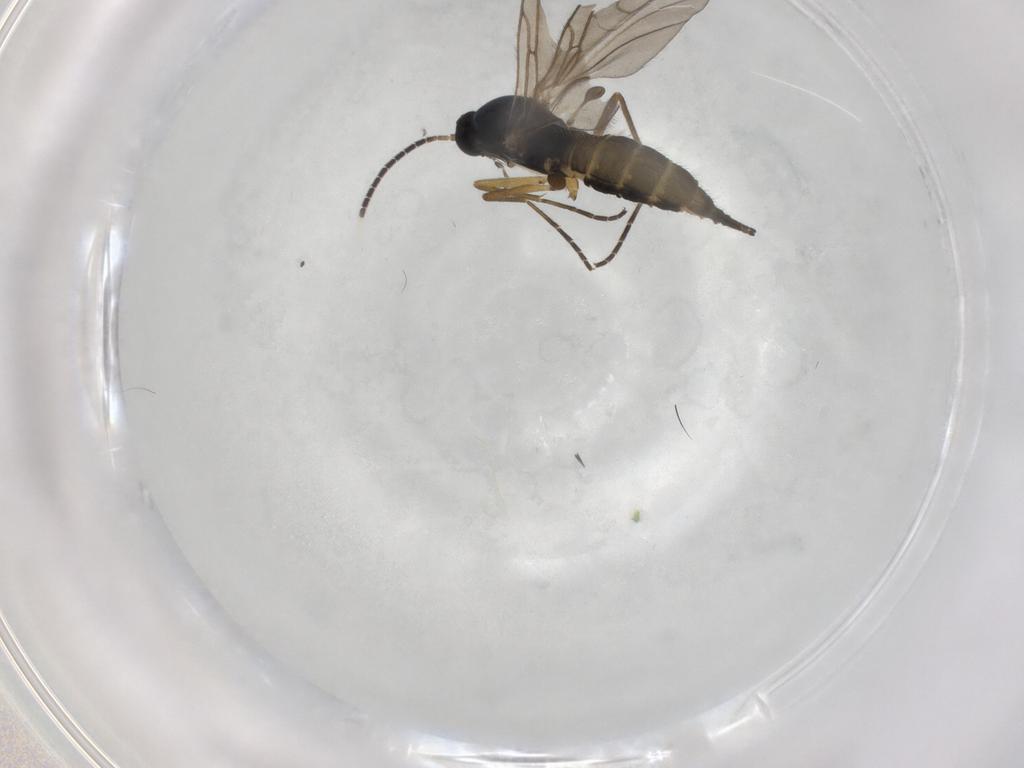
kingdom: Animalia
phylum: Arthropoda
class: Insecta
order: Diptera
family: Sciaridae
